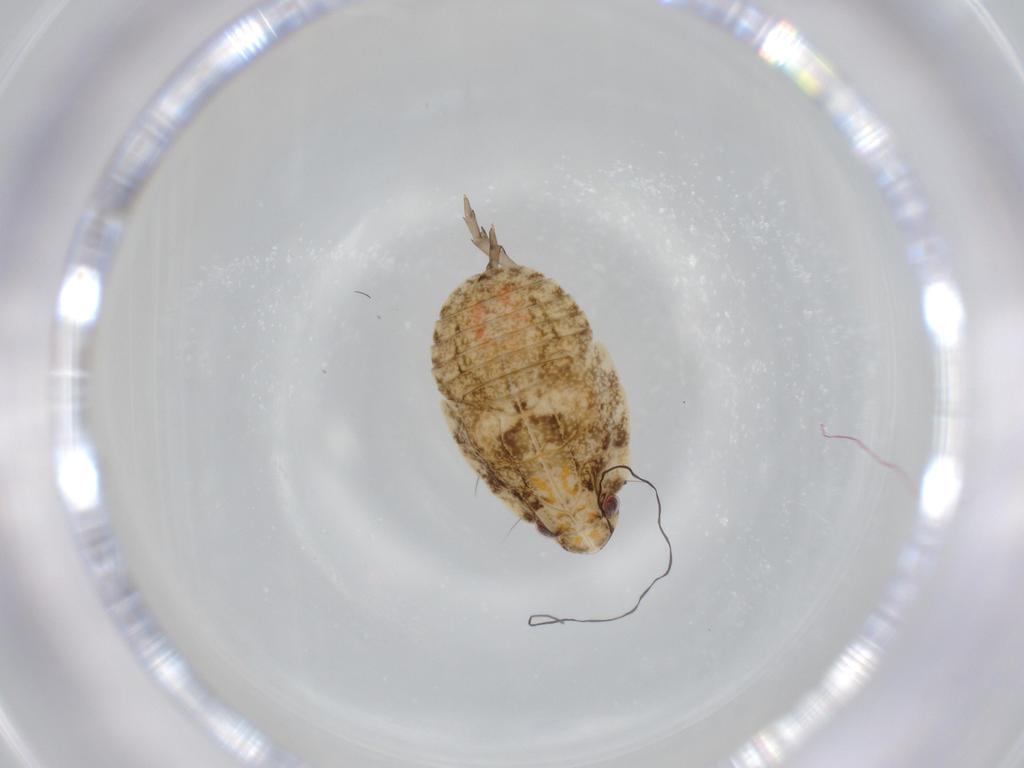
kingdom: Animalia
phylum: Arthropoda
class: Insecta
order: Hemiptera
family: Flatidae
